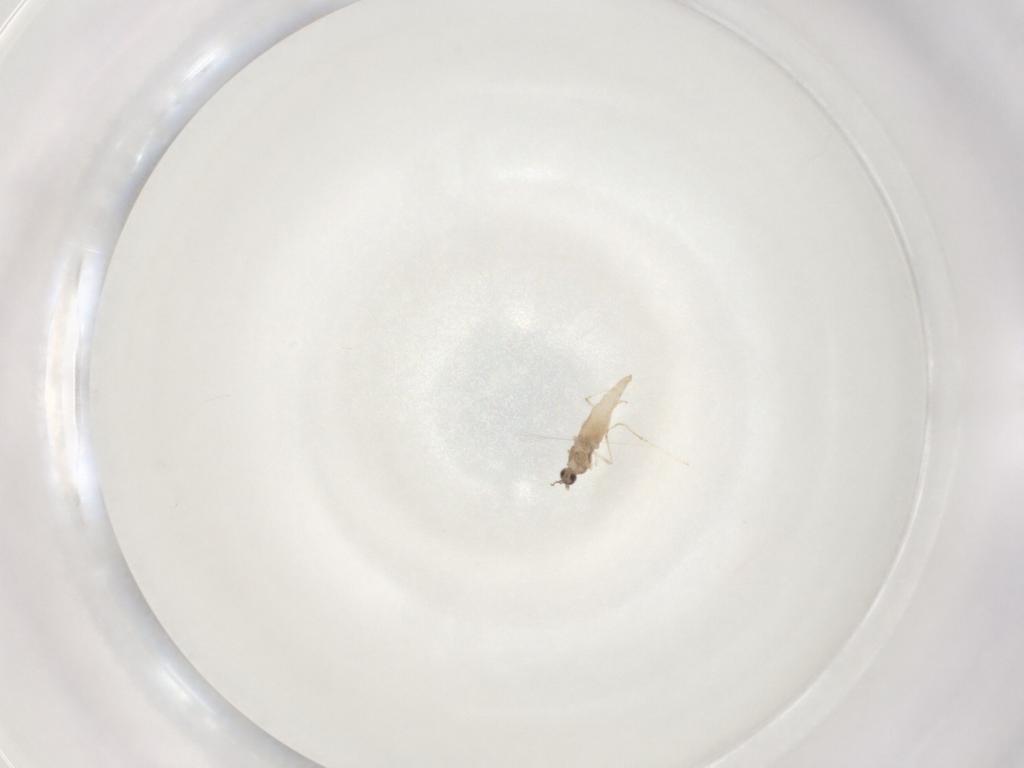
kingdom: Animalia
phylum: Arthropoda
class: Insecta
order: Diptera
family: Cecidomyiidae
